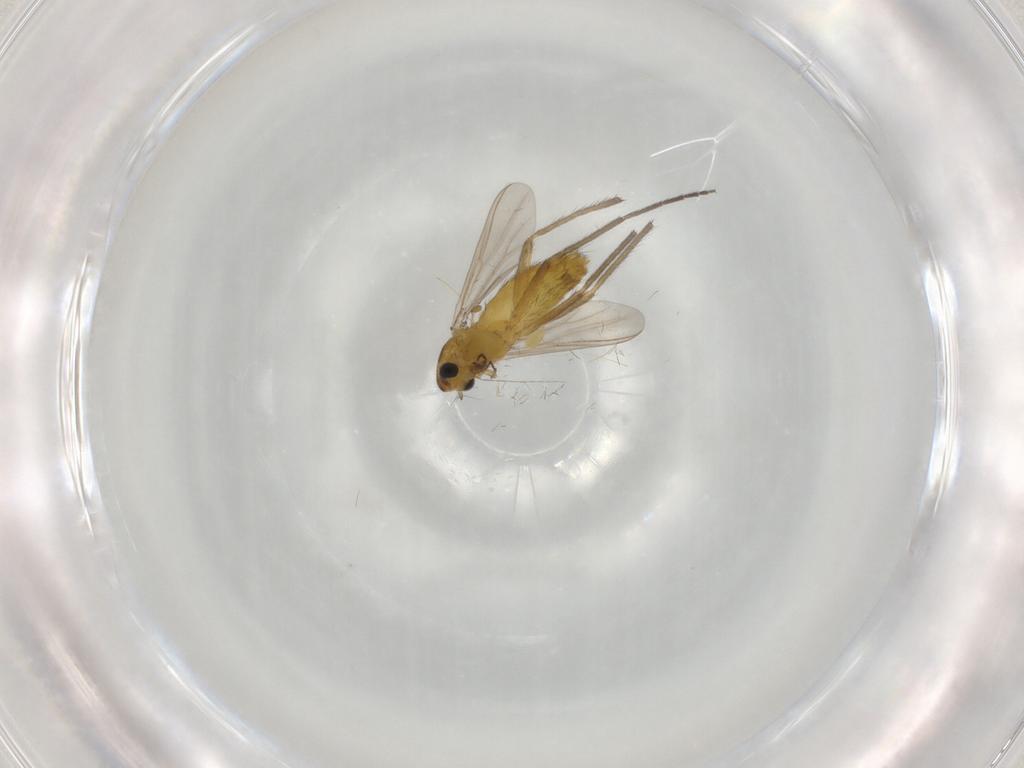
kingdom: Animalia
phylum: Arthropoda
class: Insecta
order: Diptera
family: Chironomidae
